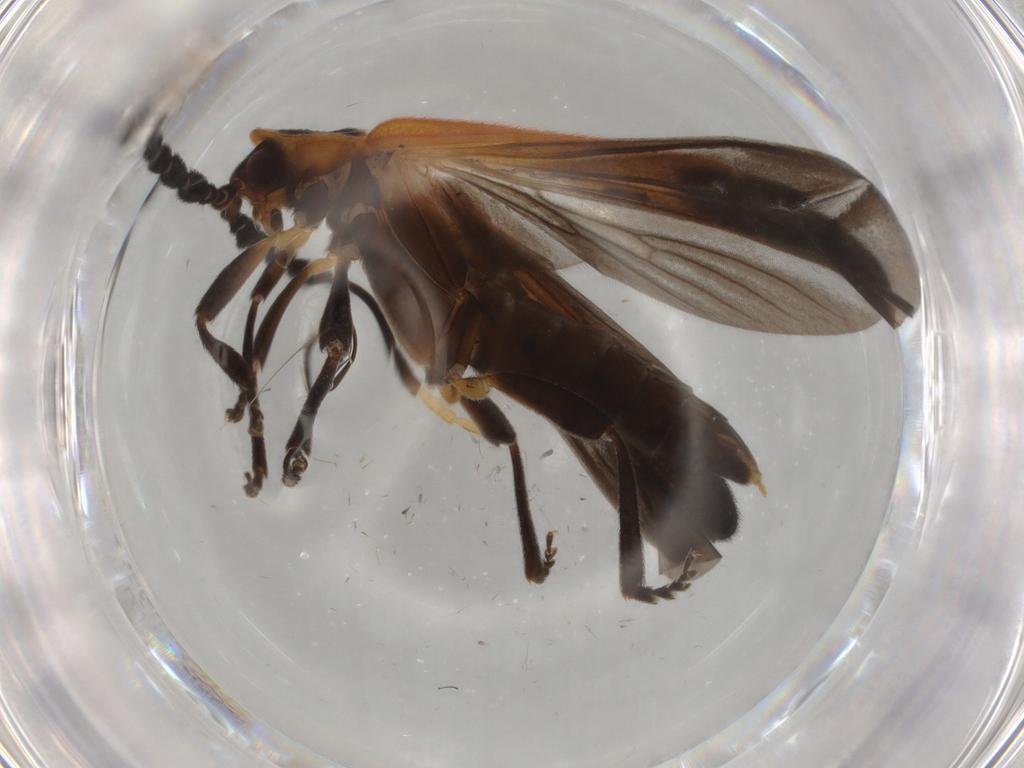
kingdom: Animalia
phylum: Arthropoda
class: Insecta
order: Coleoptera
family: Lycidae
